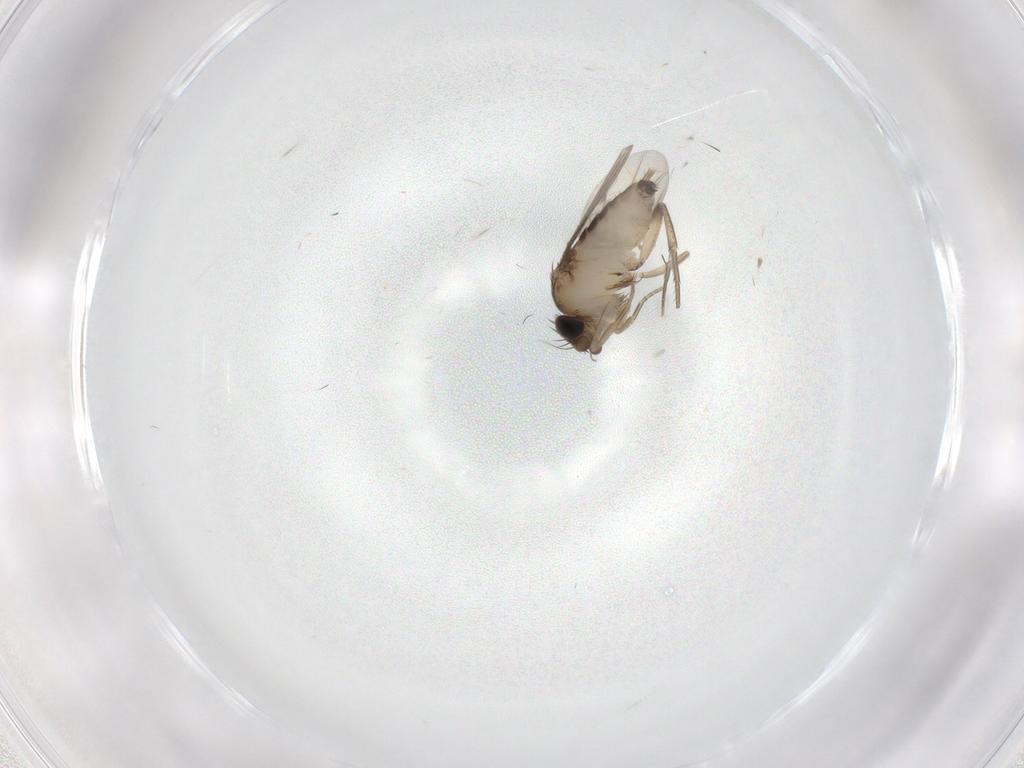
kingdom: Animalia
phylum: Arthropoda
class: Insecta
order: Diptera
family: Phoridae
